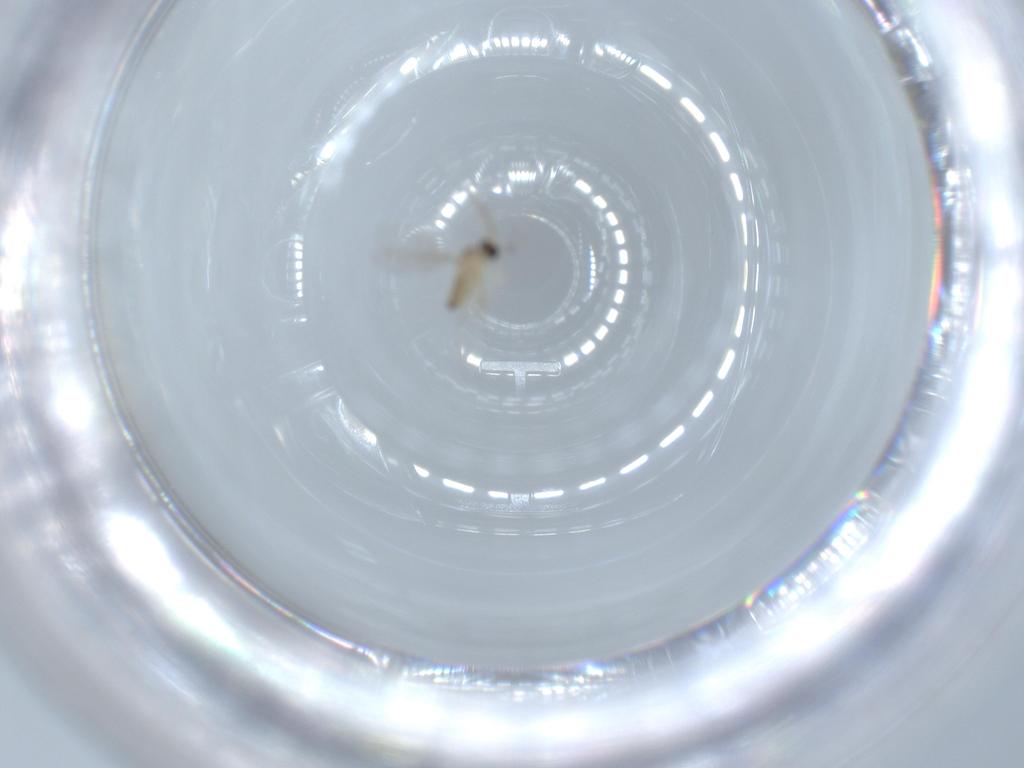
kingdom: Animalia
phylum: Arthropoda
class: Insecta
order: Diptera
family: Cecidomyiidae
